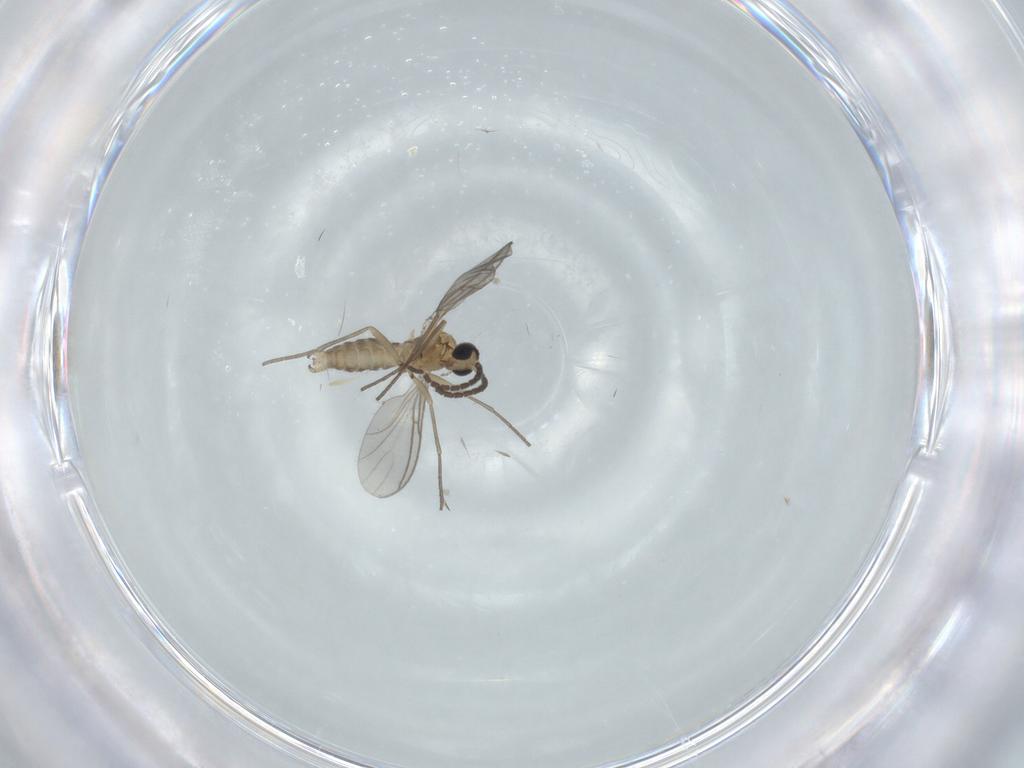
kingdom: Animalia
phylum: Arthropoda
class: Insecta
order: Diptera
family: Sciaridae
